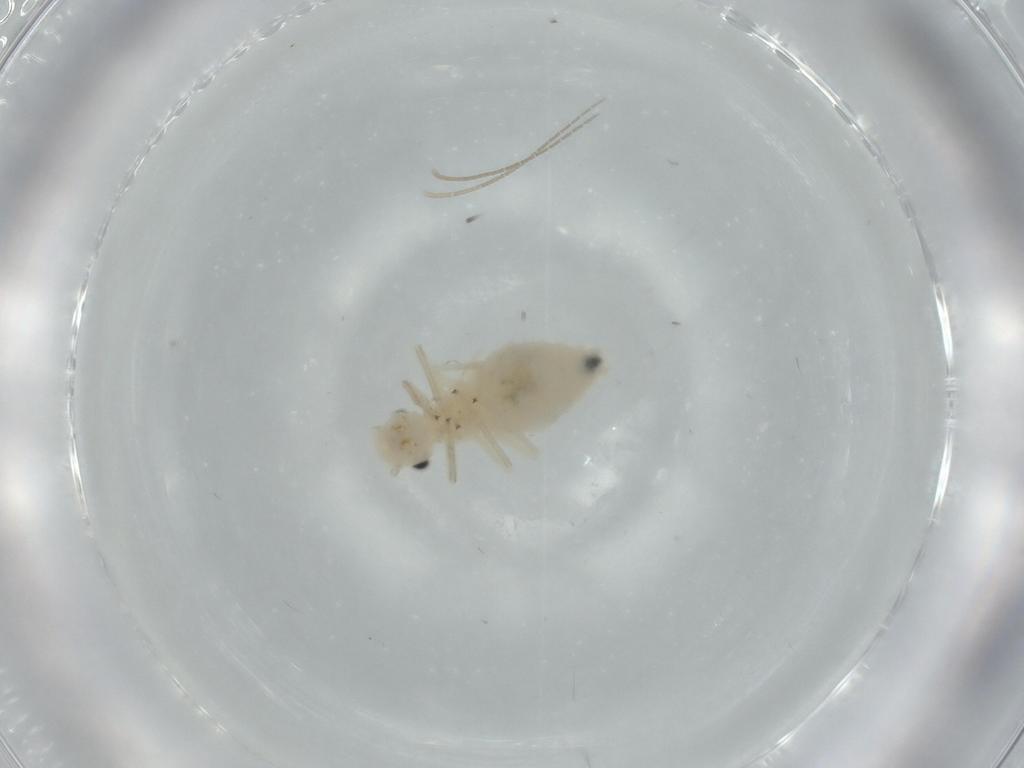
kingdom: Animalia
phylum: Arthropoda
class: Insecta
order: Psocodea
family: Caeciliusidae
